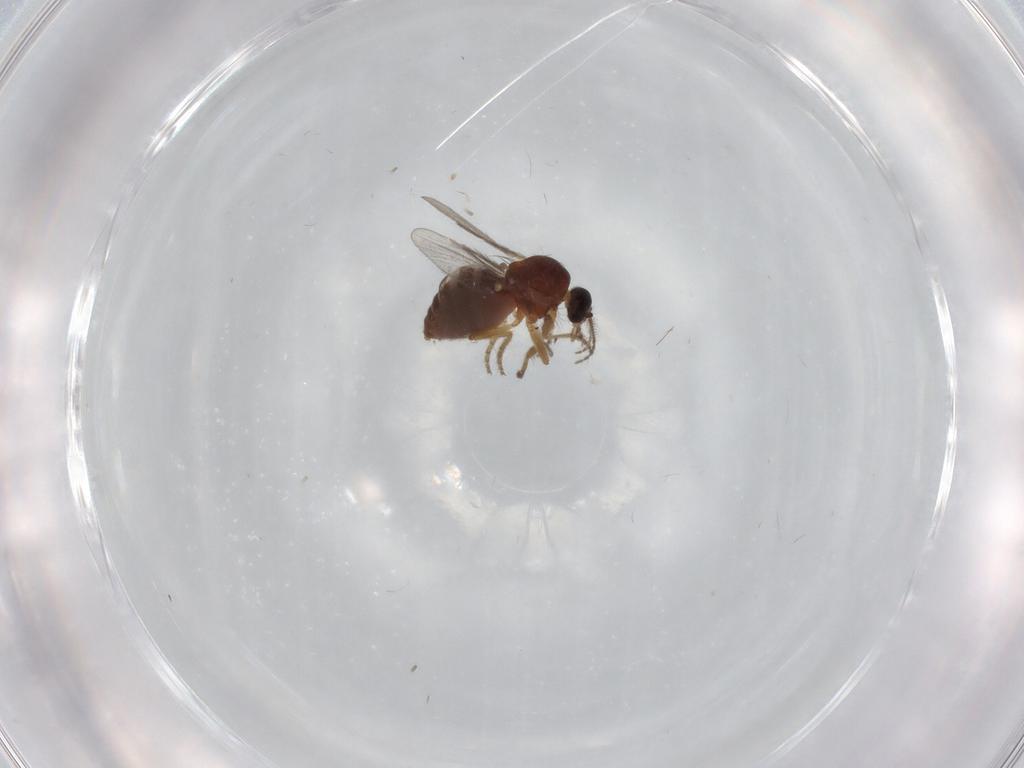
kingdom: Animalia
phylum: Arthropoda
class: Insecta
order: Diptera
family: Ceratopogonidae
